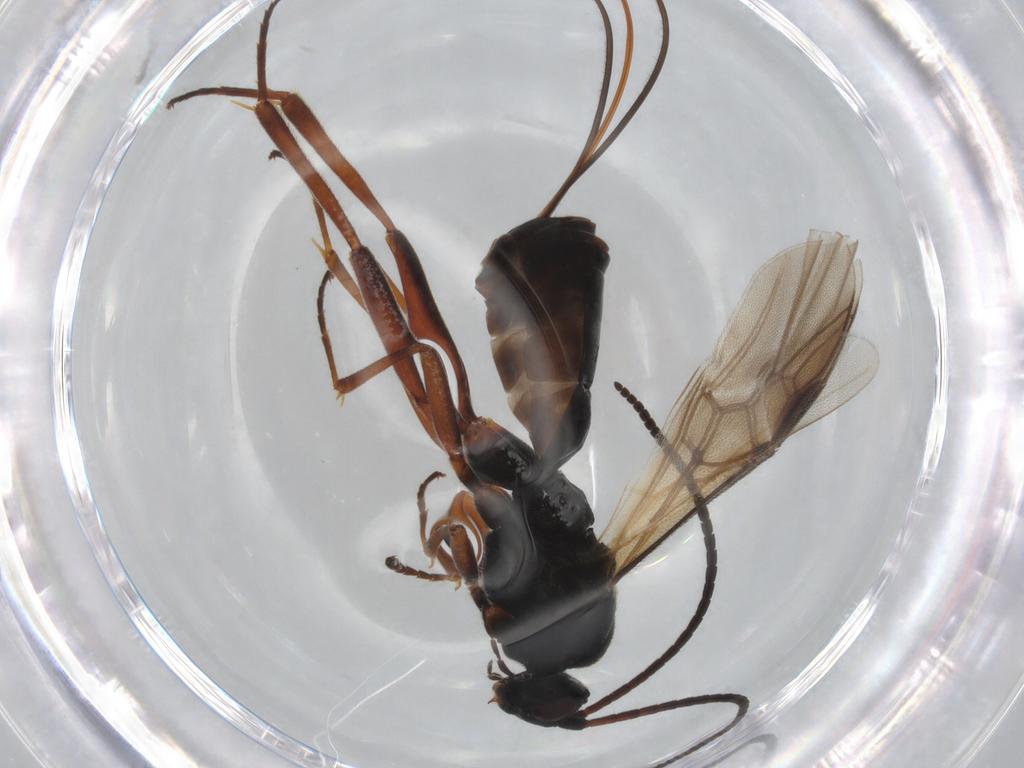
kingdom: Animalia
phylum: Arthropoda
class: Insecta
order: Hymenoptera
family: Braconidae
